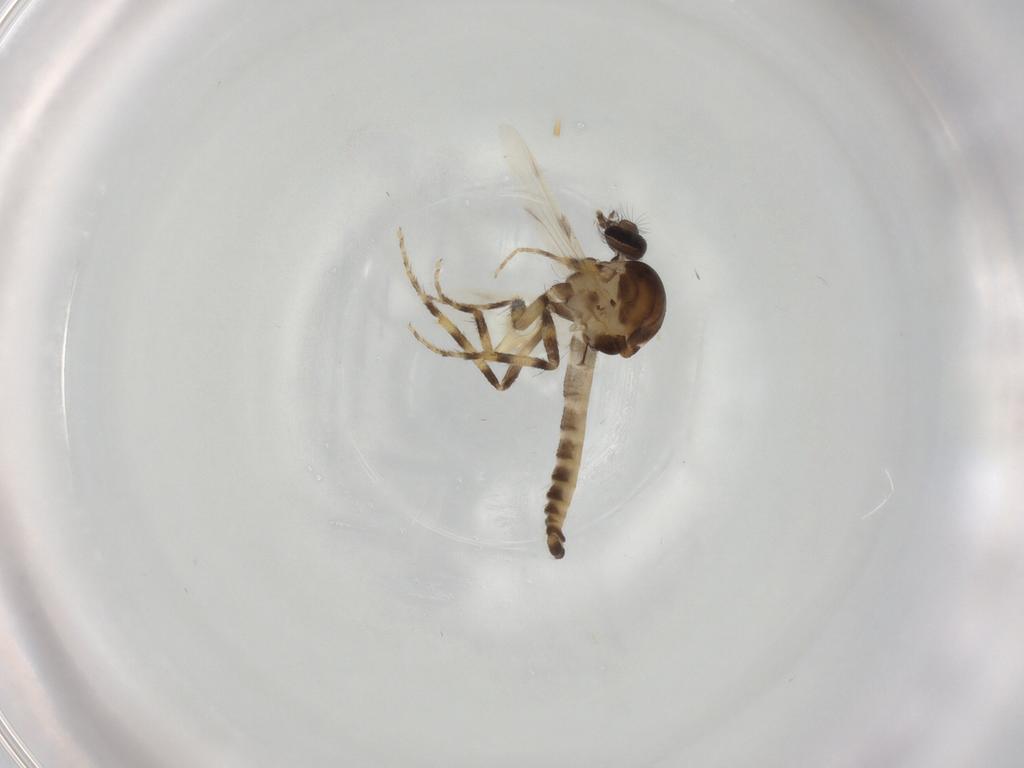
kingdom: Animalia
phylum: Arthropoda
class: Insecta
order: Diptera
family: Ceratopogonidae
